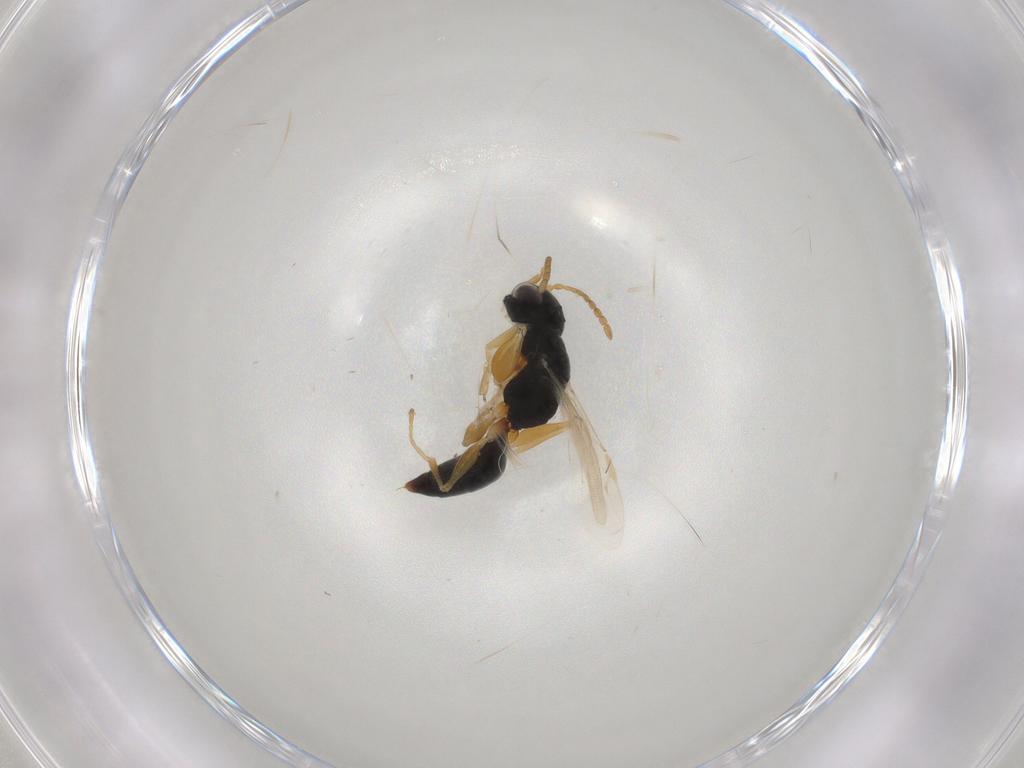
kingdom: Animalia
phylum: Arthropoda
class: Insecta
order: Hymenoptera
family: Dryinidae
